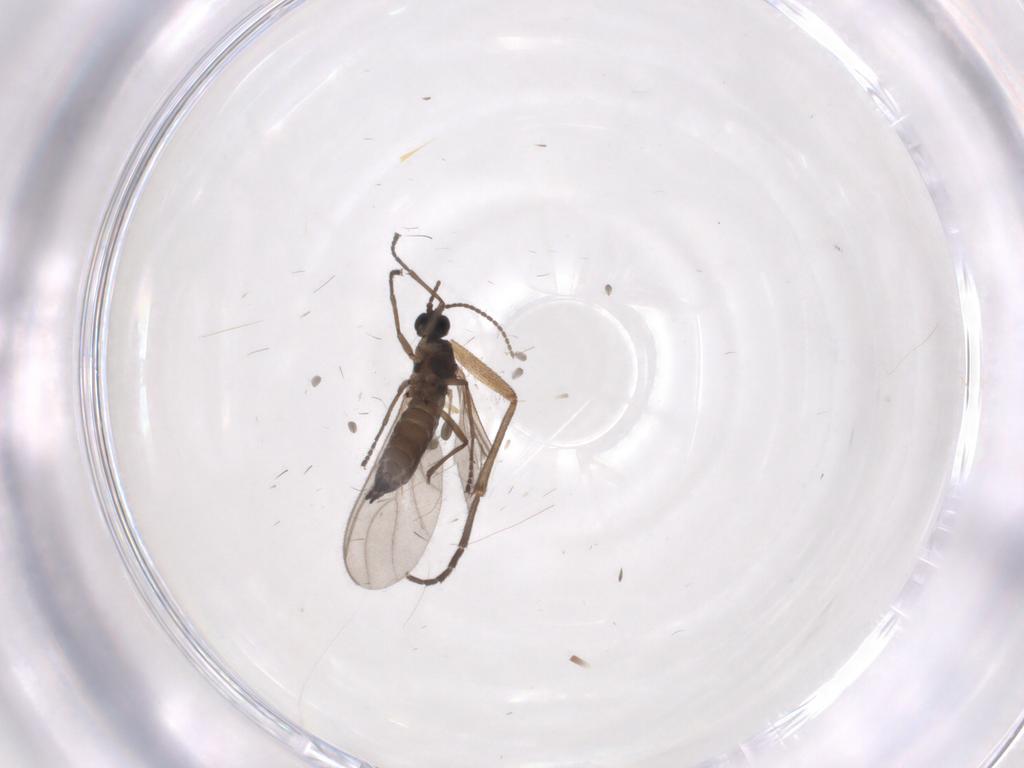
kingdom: Animalia
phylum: Arthropoda
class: Insecta
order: Diptera
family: Sciaridae
